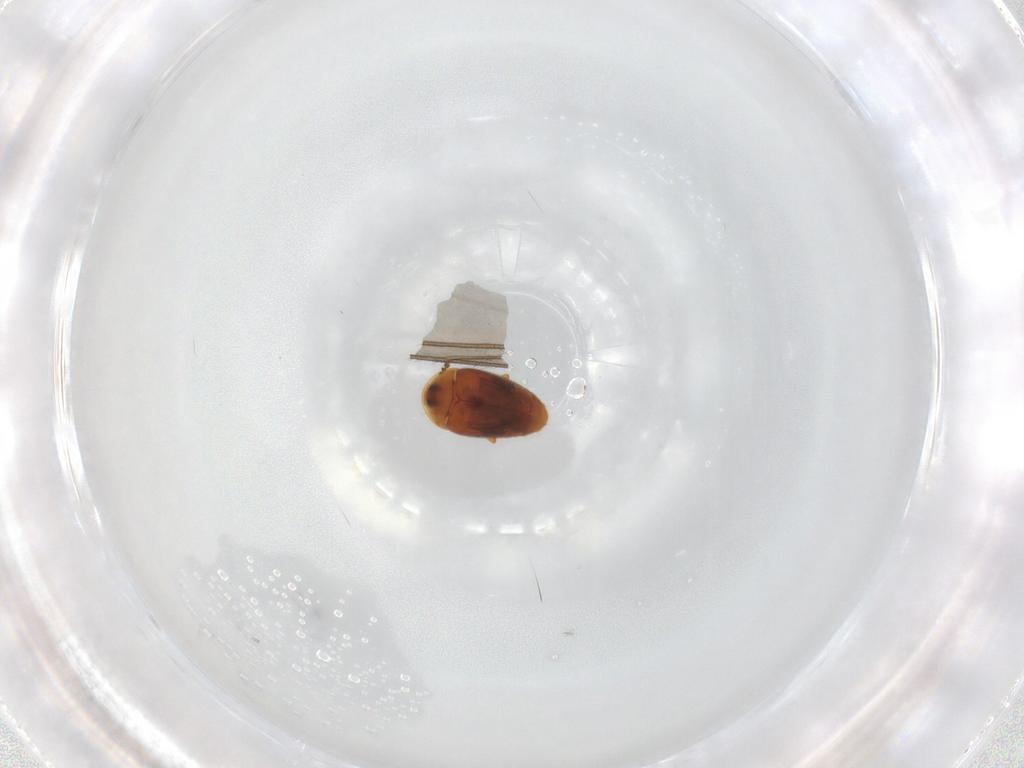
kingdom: Animalia
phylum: Arthropoda
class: Insecta
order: Coleoptera
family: Corylophidae
